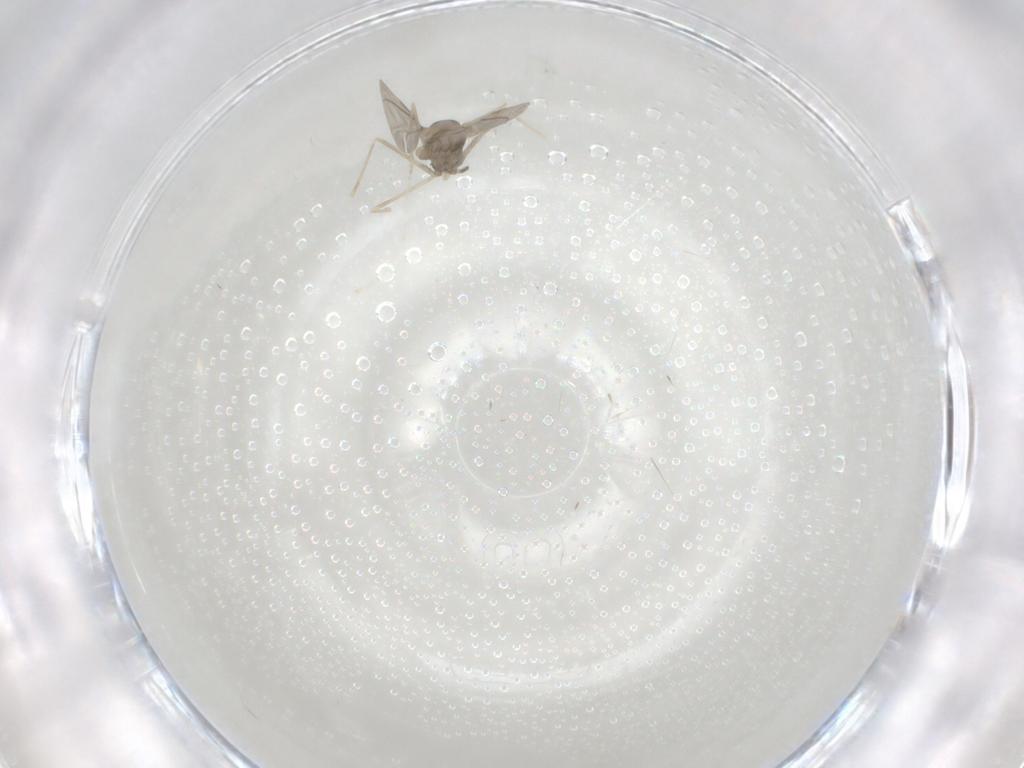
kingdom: Animalia
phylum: Arthropoda
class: Insecta
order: Diptera
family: Cecidomyiidae
